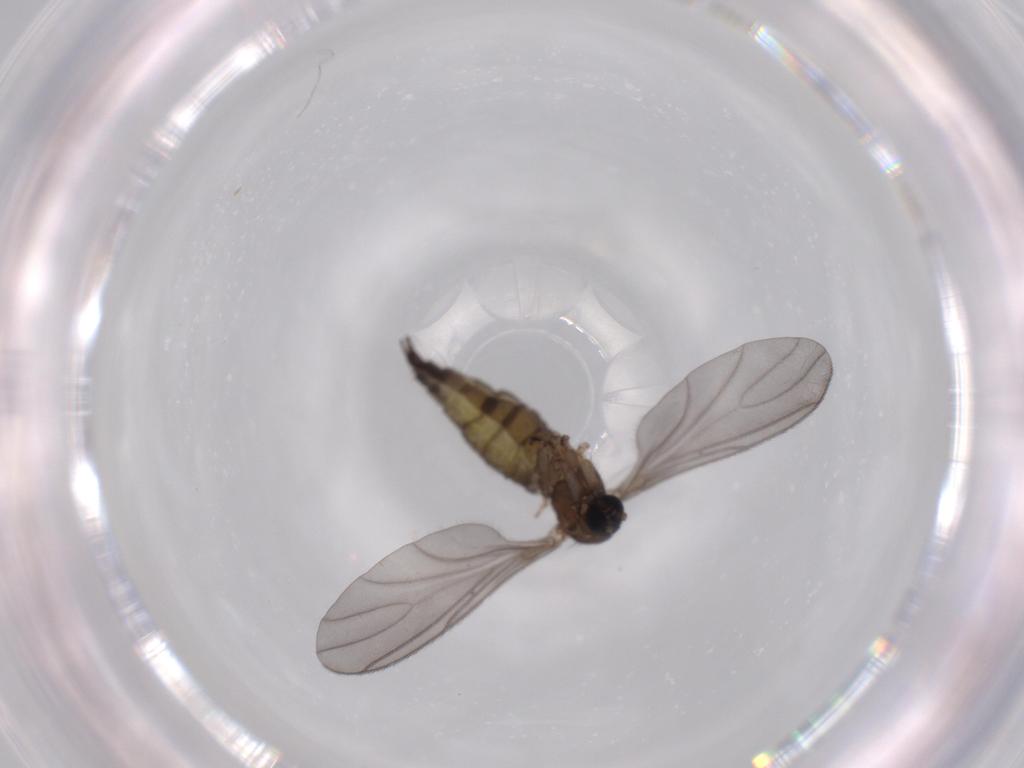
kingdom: Animalia
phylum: Arthropoda
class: Insecta
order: Diptera
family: Sciaridae
